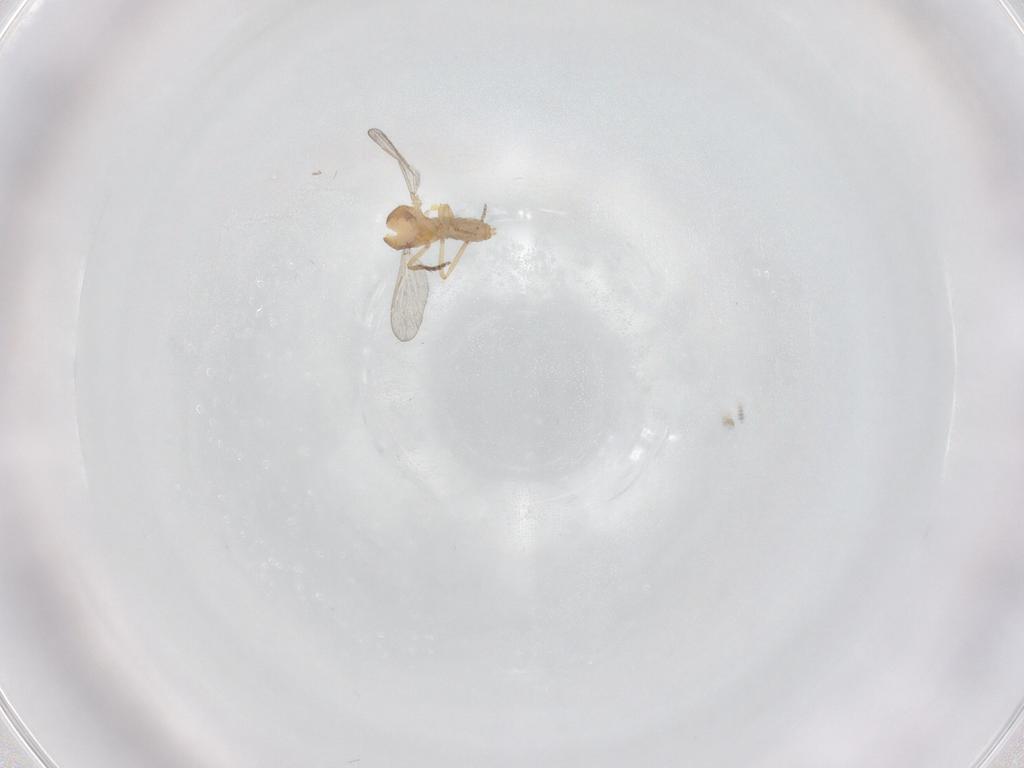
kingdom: Animalia
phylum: Arthropoda
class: Insecta
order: Diptera
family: Ceratopogonidae
